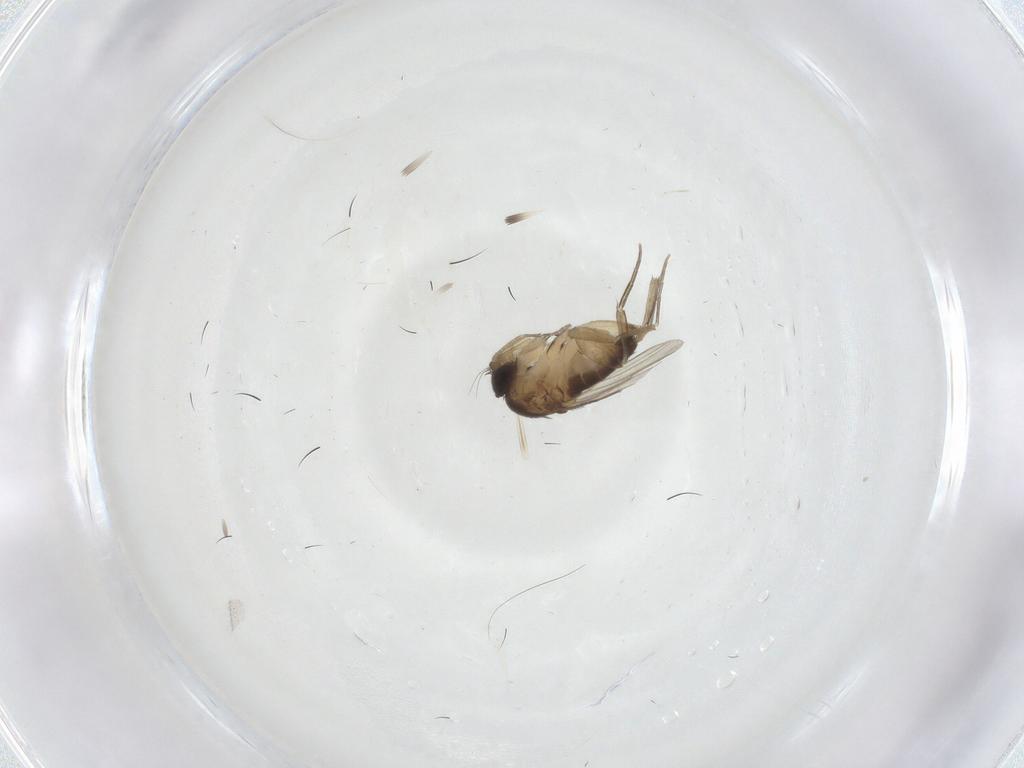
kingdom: Animalia
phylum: Arthropoda
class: Insecta
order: Diptera
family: Phoridae
